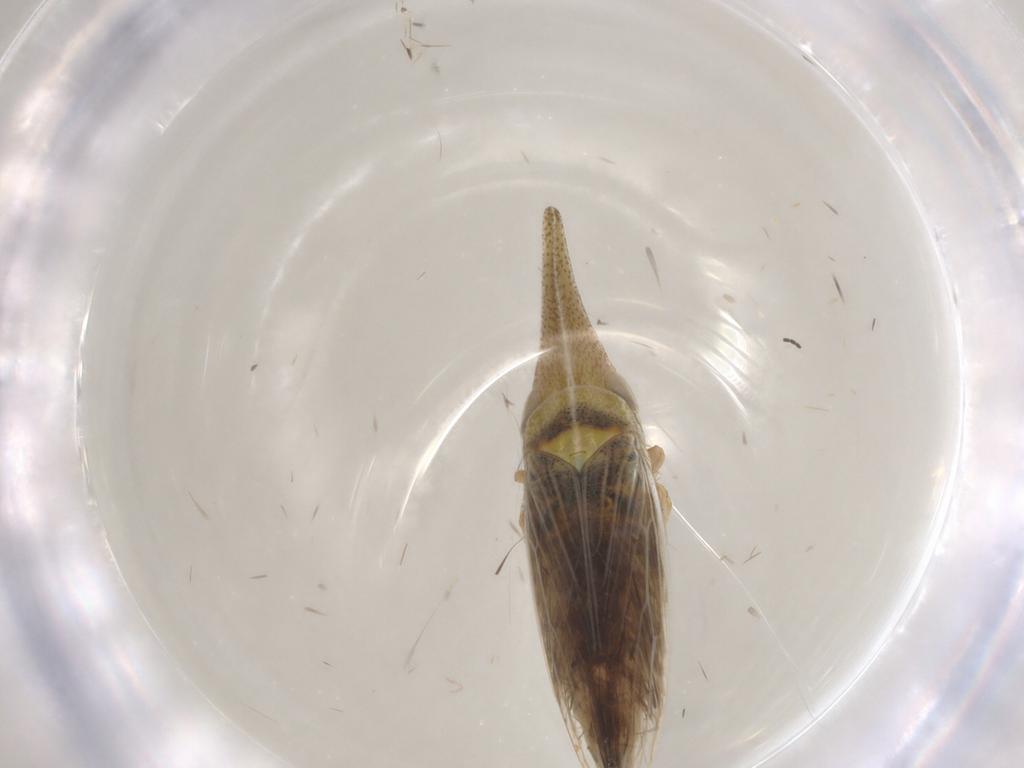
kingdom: Animalia
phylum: Arthropoda
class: Insecta
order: Hemiptera
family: Cicadellidae
